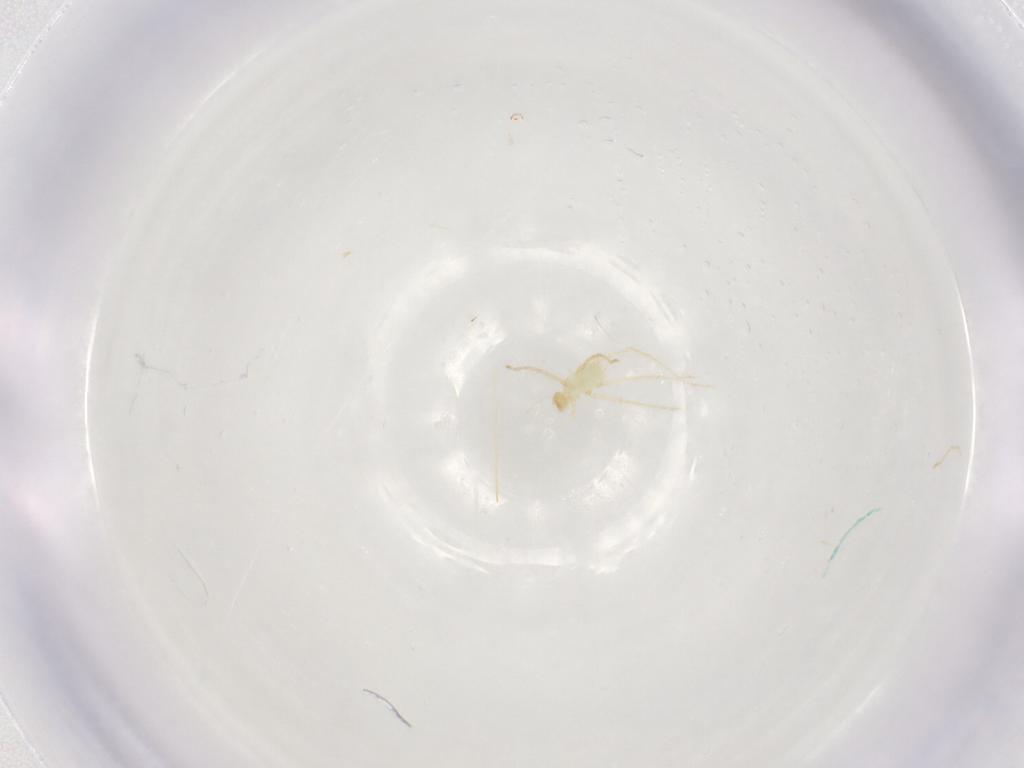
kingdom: Animalia
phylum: Arthropoda
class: Arachnida
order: Trombidiformes
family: Erythraeidae
